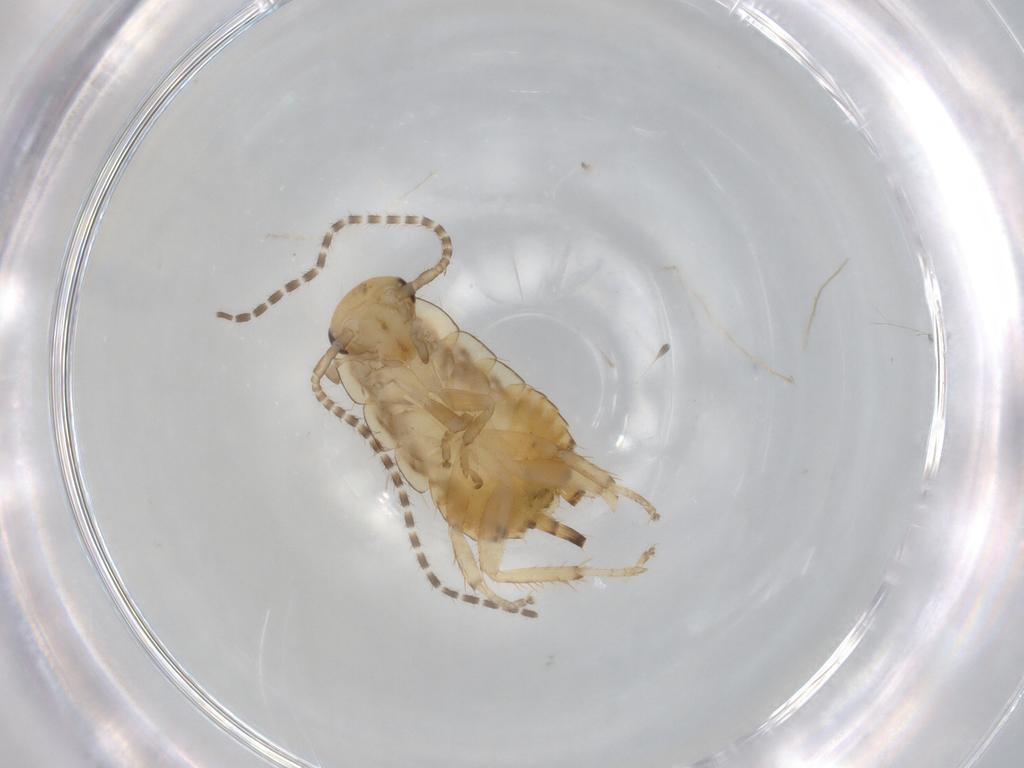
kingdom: Animalia
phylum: Arthropoda
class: Insecta
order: Blattodea
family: Ectobiidae
